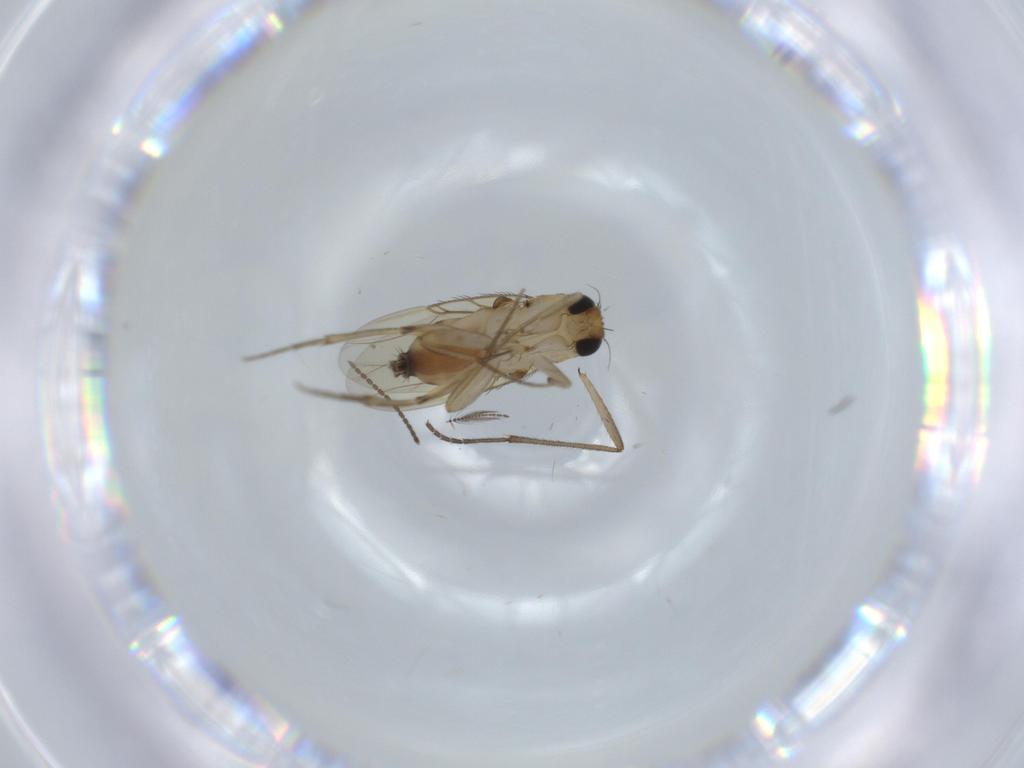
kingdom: Animalia
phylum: Arthropoda
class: Insecta
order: Diptera
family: Phoridae
